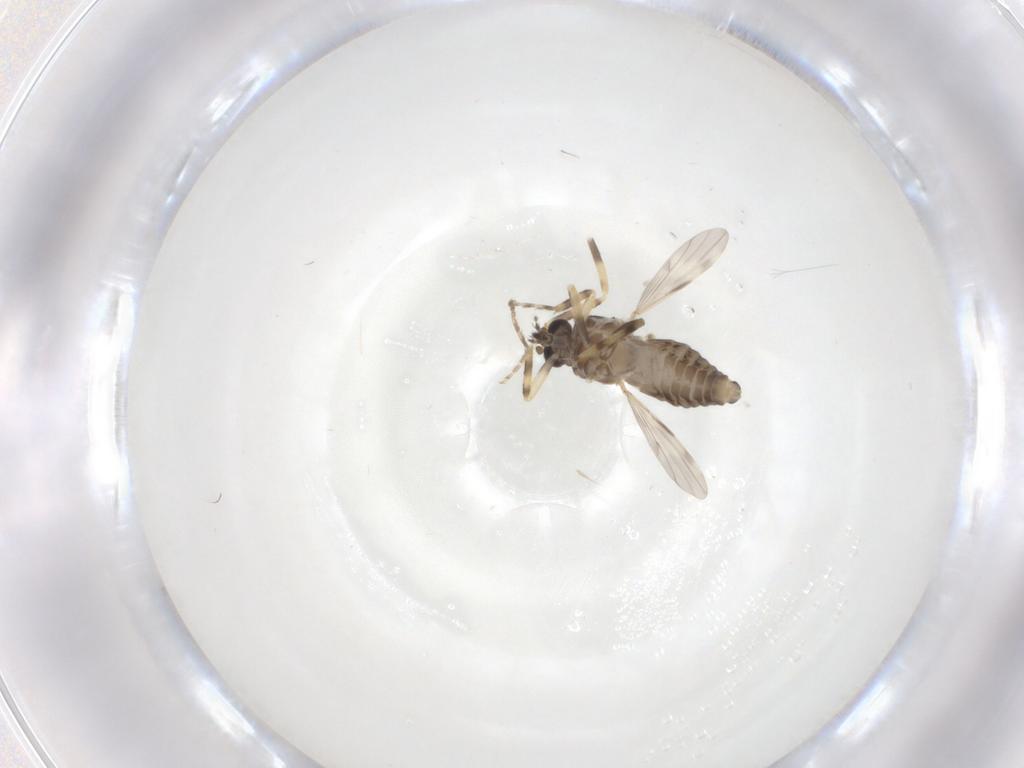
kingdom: Animalia
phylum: Arthropoda
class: Insecta
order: Diptera
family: Ceratopogonidae
